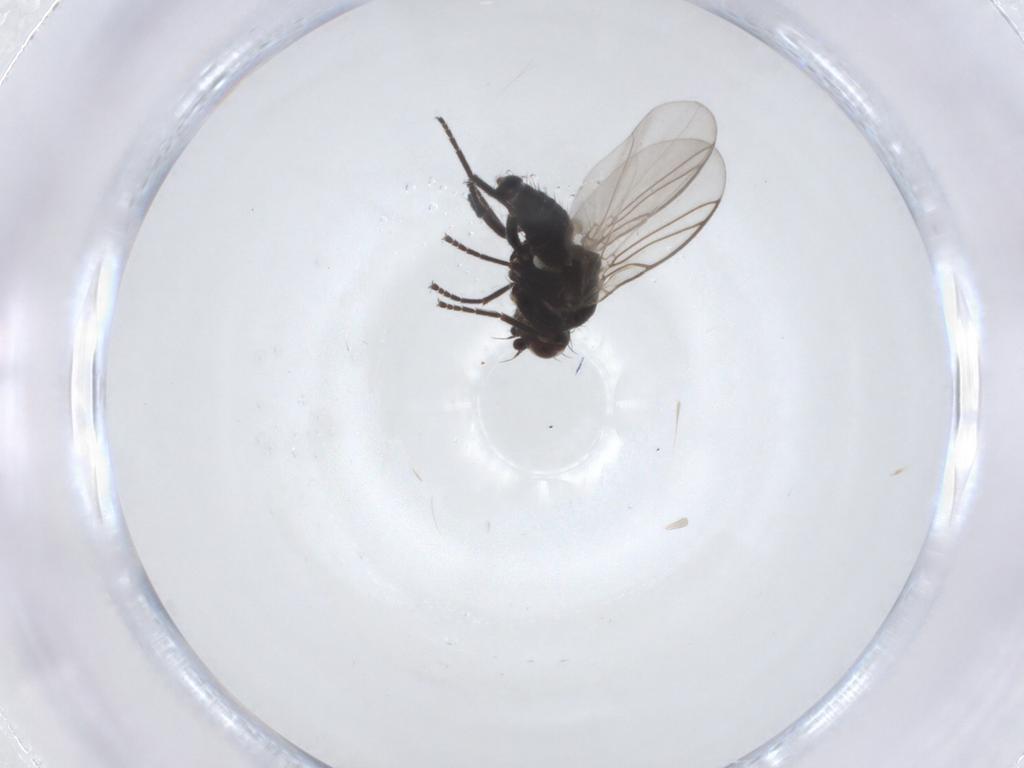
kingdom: Animalia
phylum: Arthropoda
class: Insecta
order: Diptera
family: Agromyzidae
